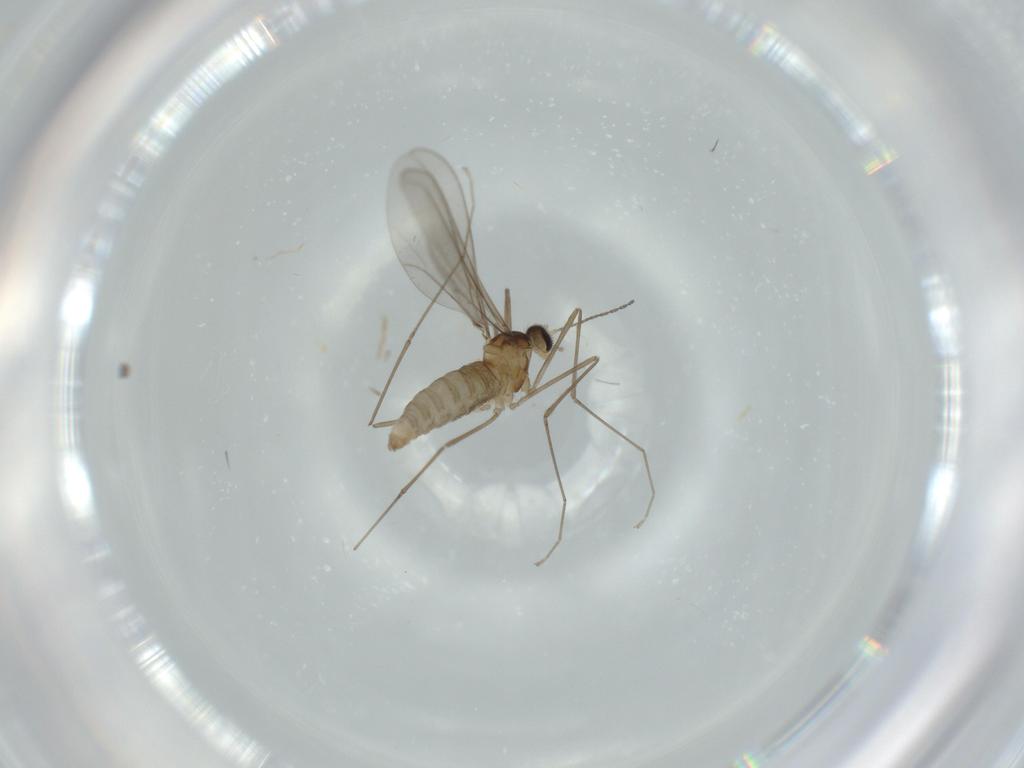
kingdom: Animalia
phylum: Arthropoda
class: Insecta
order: Diptera
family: Cecidomyiidae
